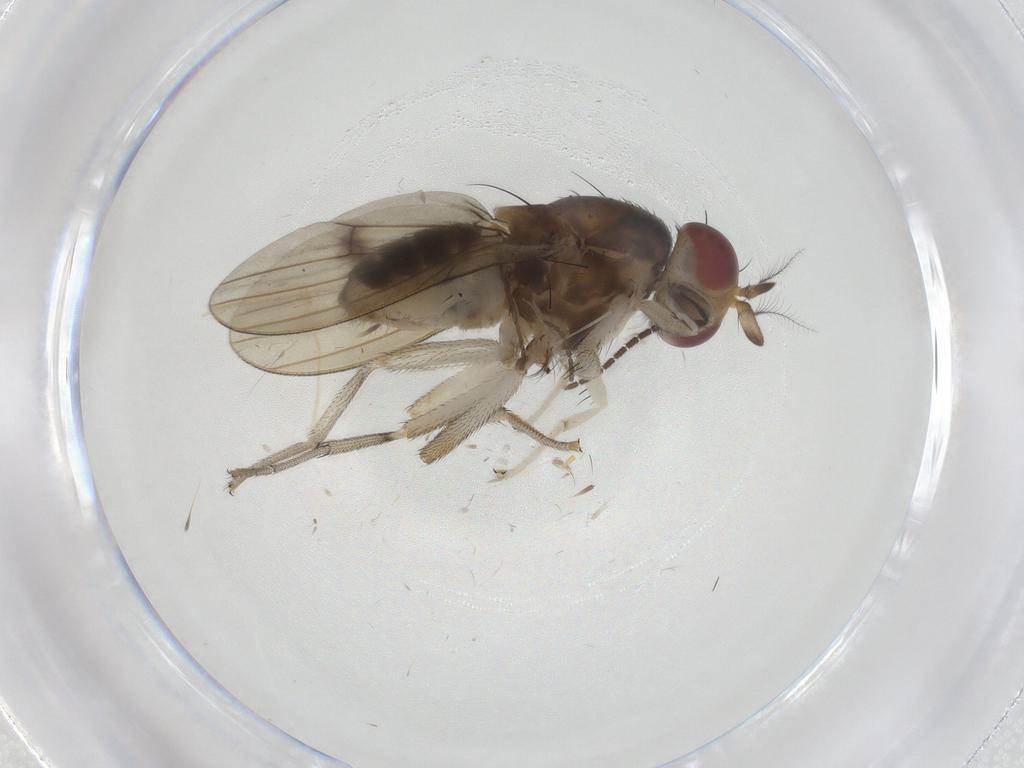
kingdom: Animalia
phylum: Arthropoda
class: Insecta
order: Diptera
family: Lauxaniidae
